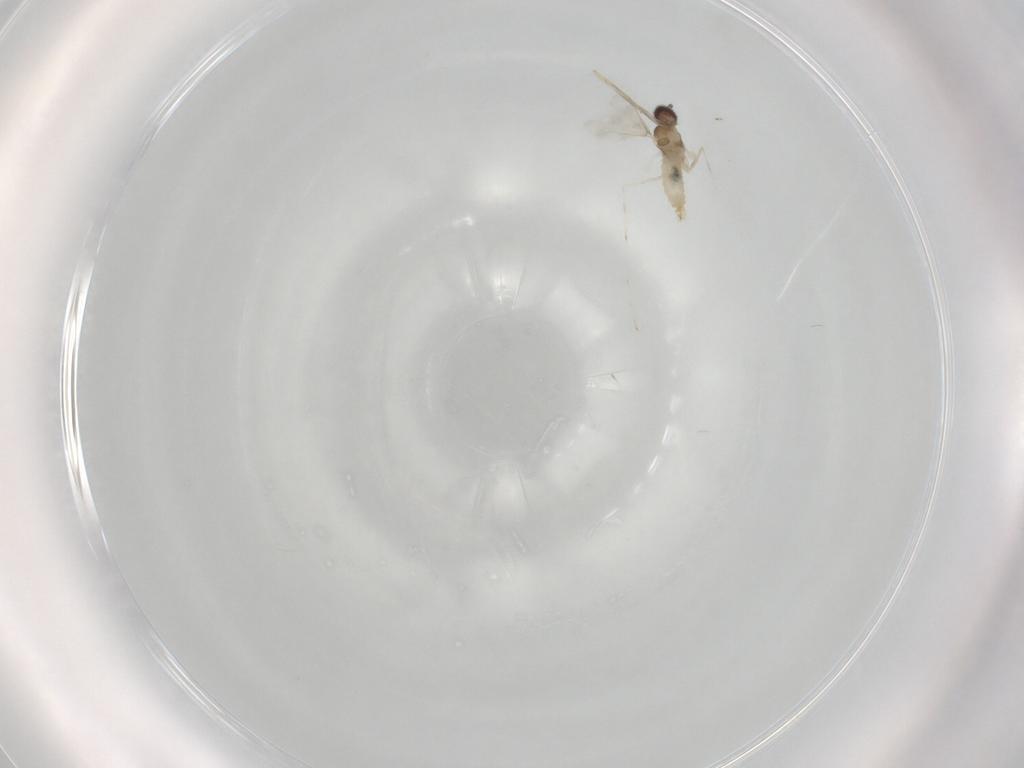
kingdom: Animalia
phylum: Arthropoda
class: Insecta
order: Diptera
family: Cecidomyiidae
